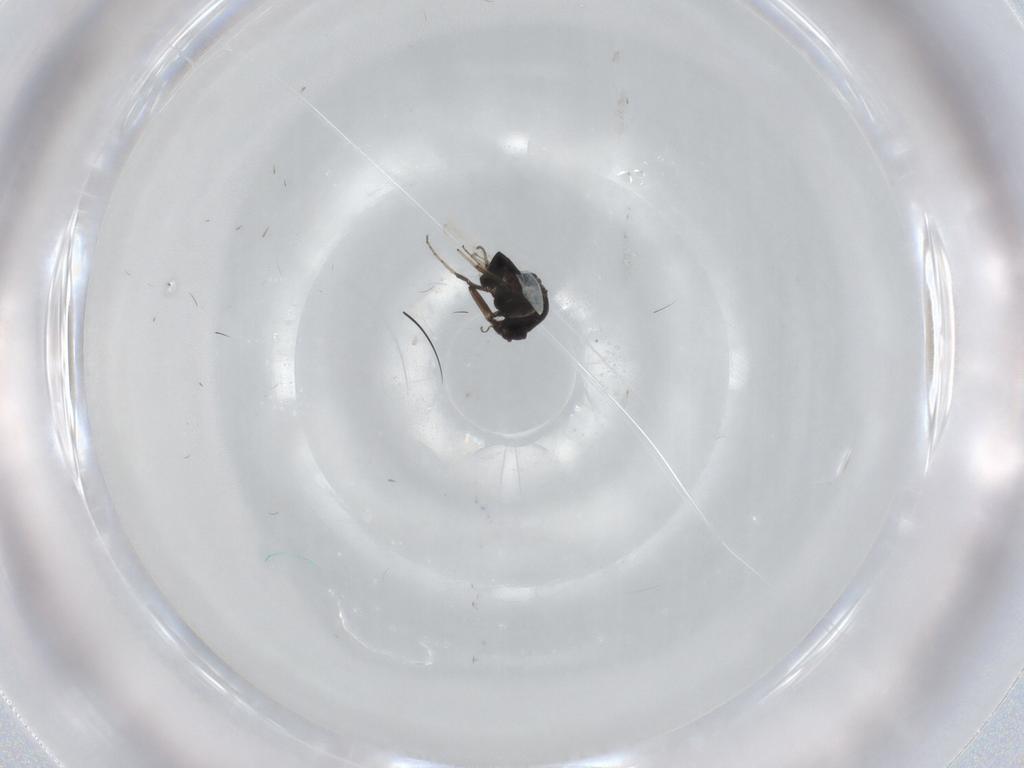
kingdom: Animalia
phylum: Arthropoda
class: Insecta
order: Diptera
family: Ceratopogonidae
